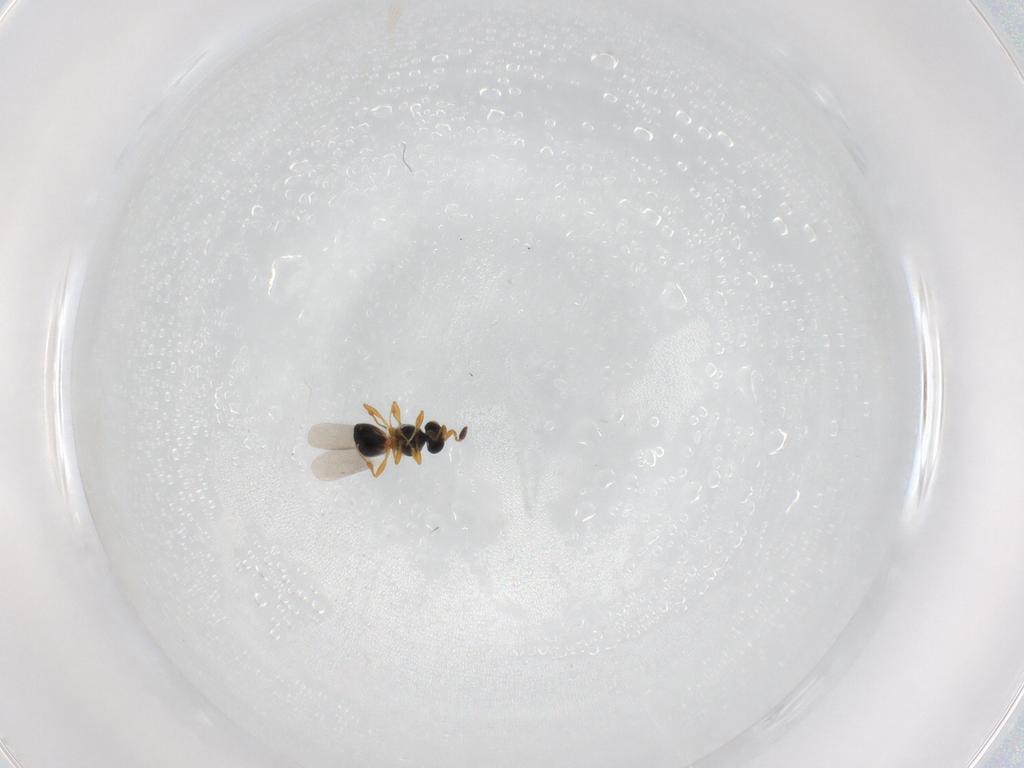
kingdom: Animalia
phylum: Arthropoda
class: Insecta
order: Hymenoptera
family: Platygastridae
